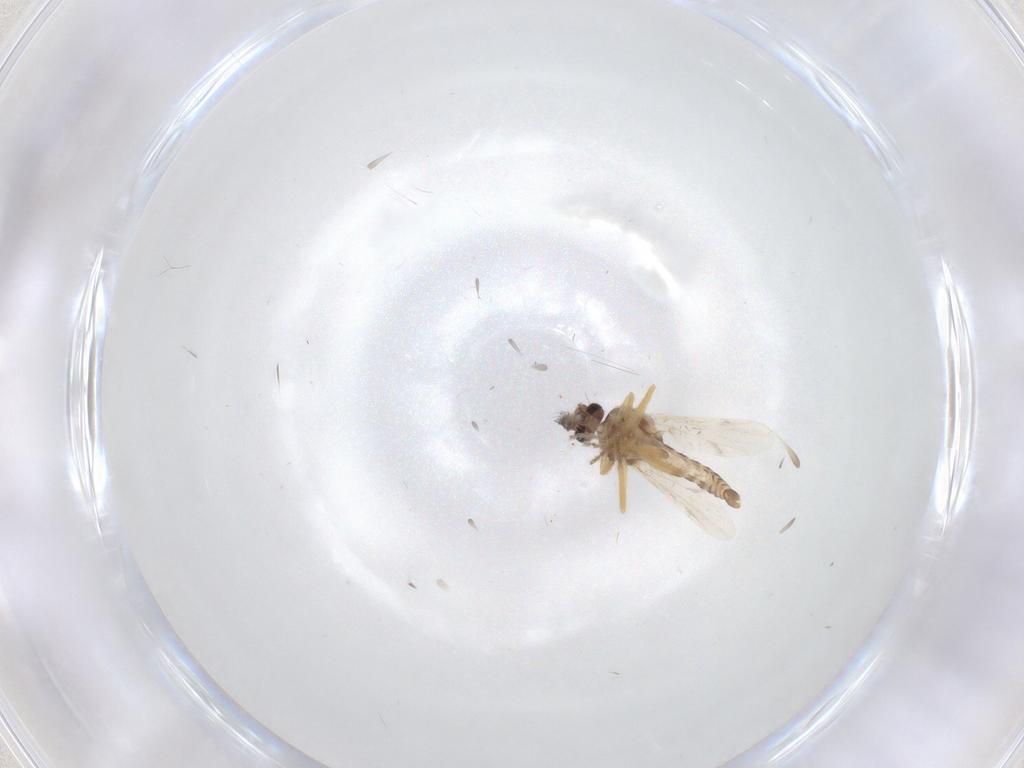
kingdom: Animalia
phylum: Arthropoda
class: Insecta
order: Diptera
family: Ceratopogonidae
